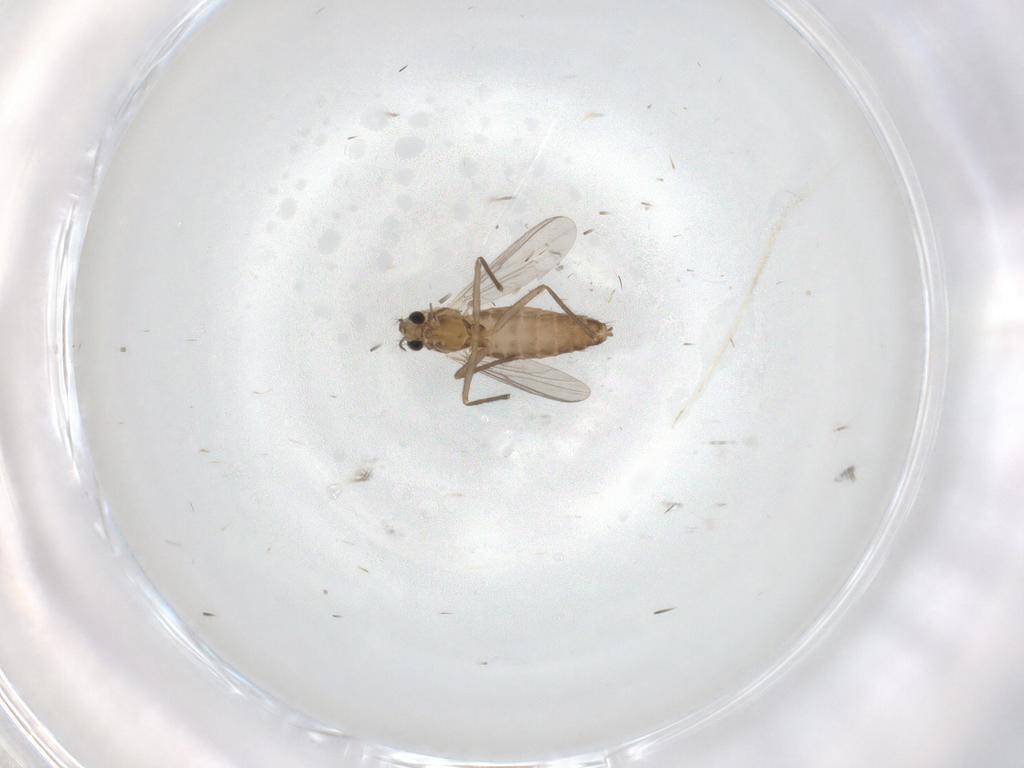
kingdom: Animalia
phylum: Arthropoda
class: Insecta
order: Diptera
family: Chironomidae
